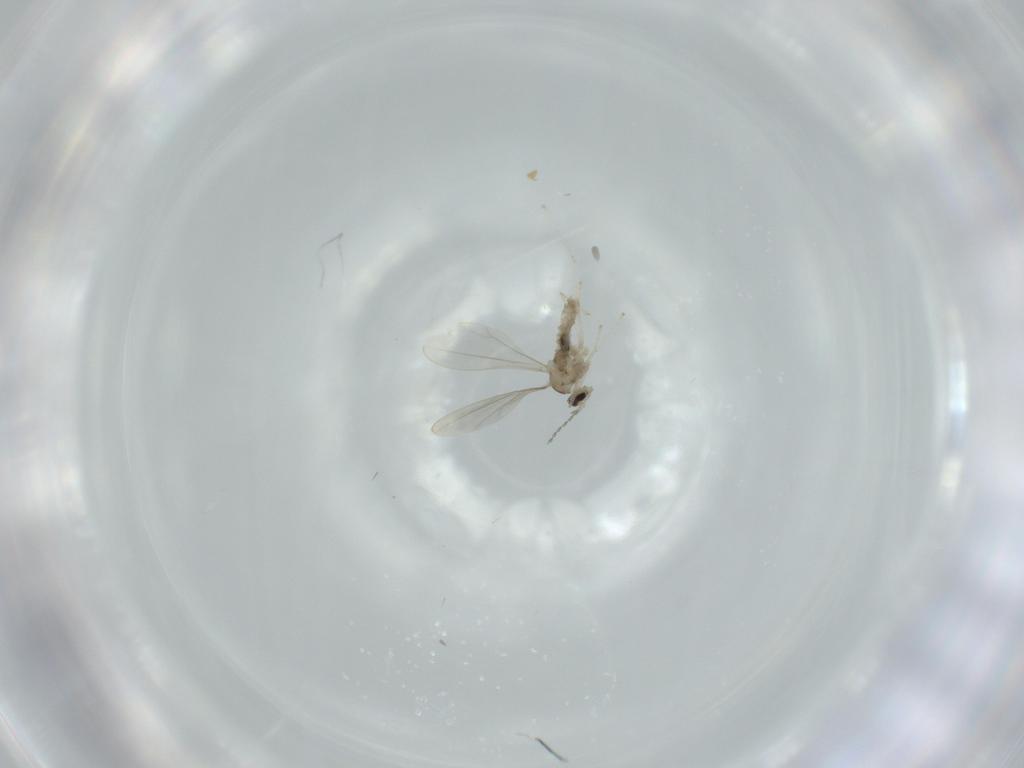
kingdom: Animalia
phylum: Arthropoda
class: Insecta
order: Diptera
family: Cecidomyiidae
